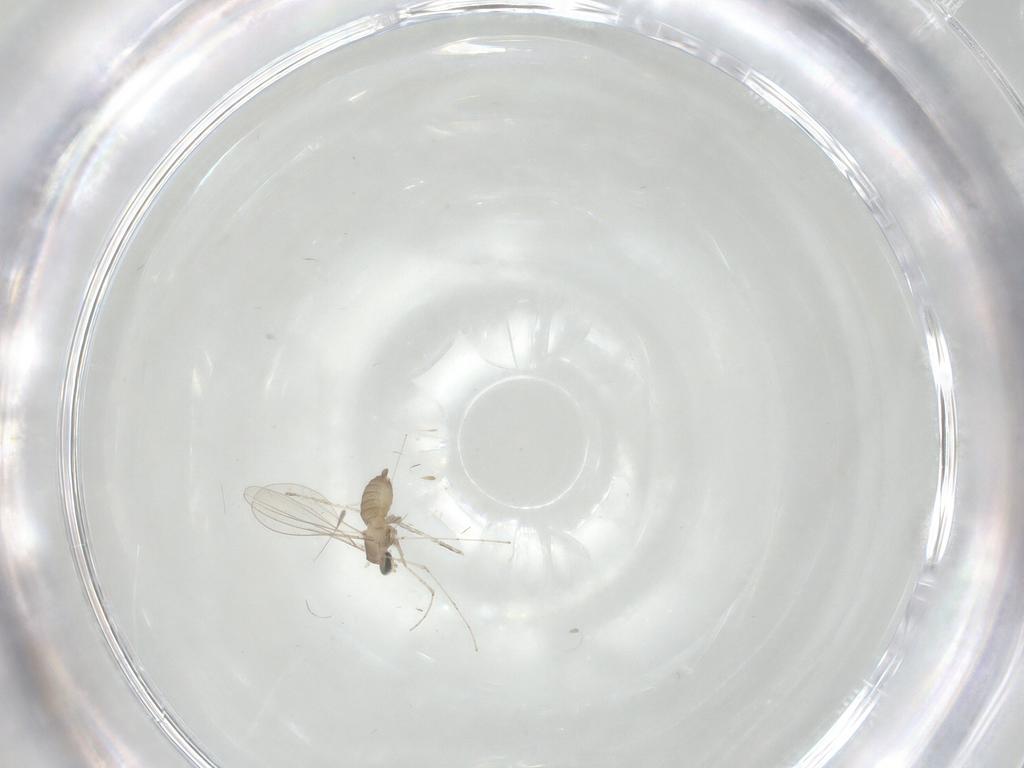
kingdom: Animalia
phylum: Arthropoda
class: Insecta
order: Diptera
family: Cecidomyiidae
